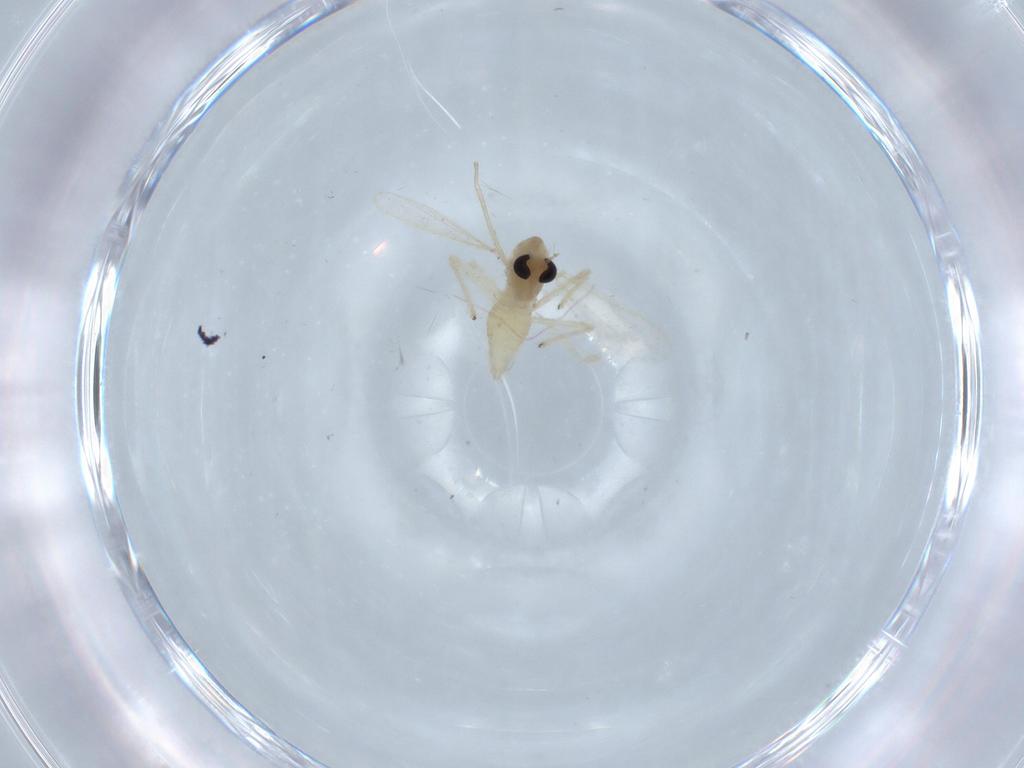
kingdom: Animalia
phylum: Arthropoda
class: Insecta
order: Diptera
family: Chironomidae
